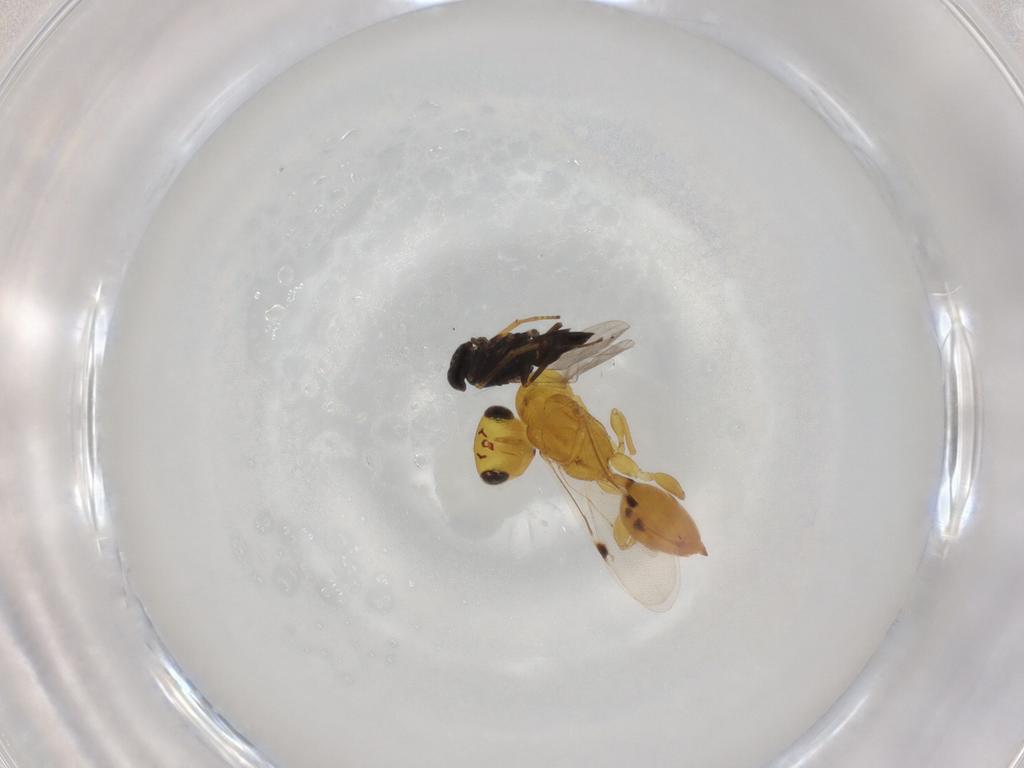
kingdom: Animalia
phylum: Arthropoda
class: Insecta
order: Hymenoptera
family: Eurytomidae
